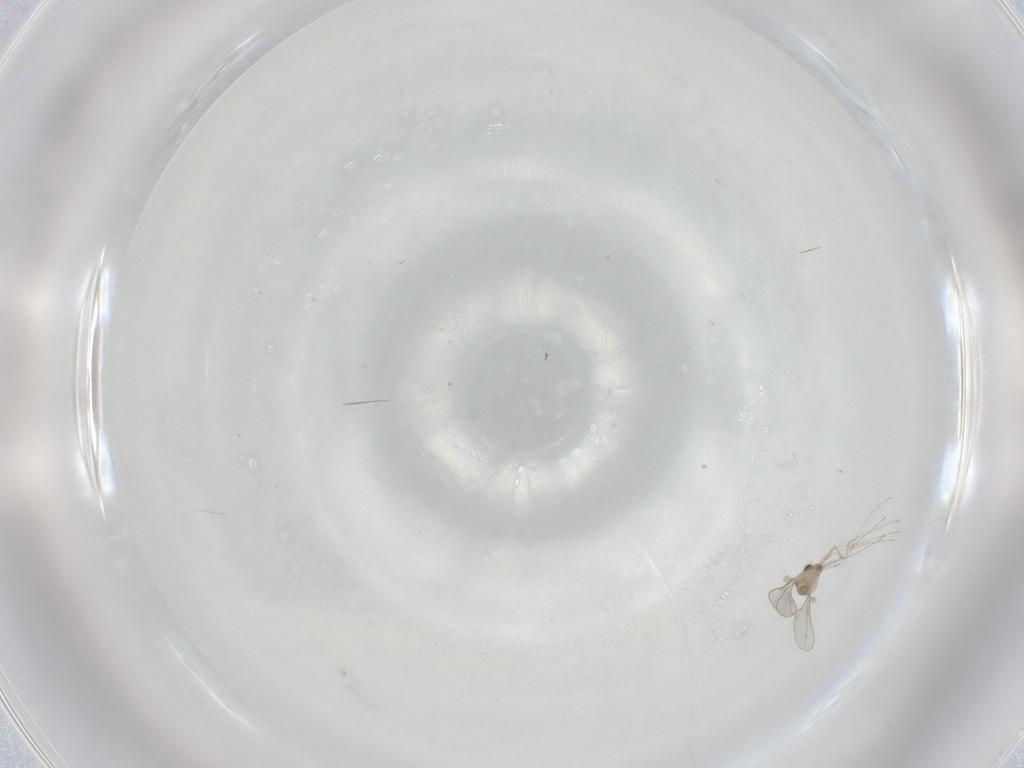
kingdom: Animalia
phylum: Arthropoda
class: Insecta
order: Diptera
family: Cecidomyiidae
